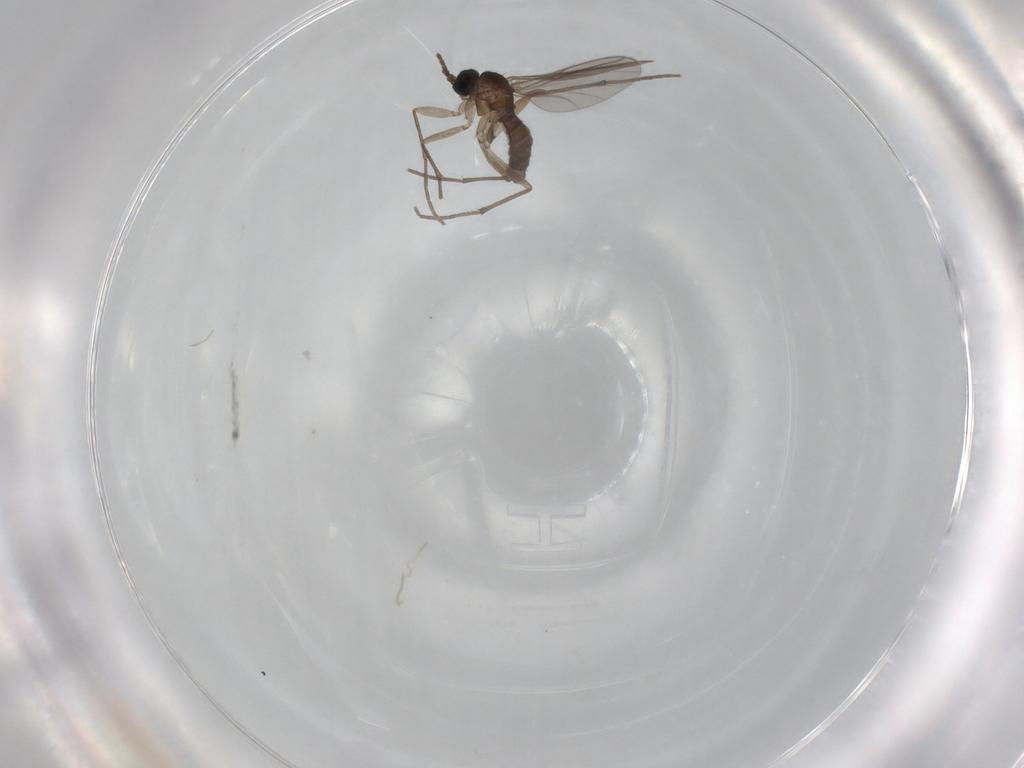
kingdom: Animalia
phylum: Arthropoda
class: Insecta
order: Diptera
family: Sciaridae
